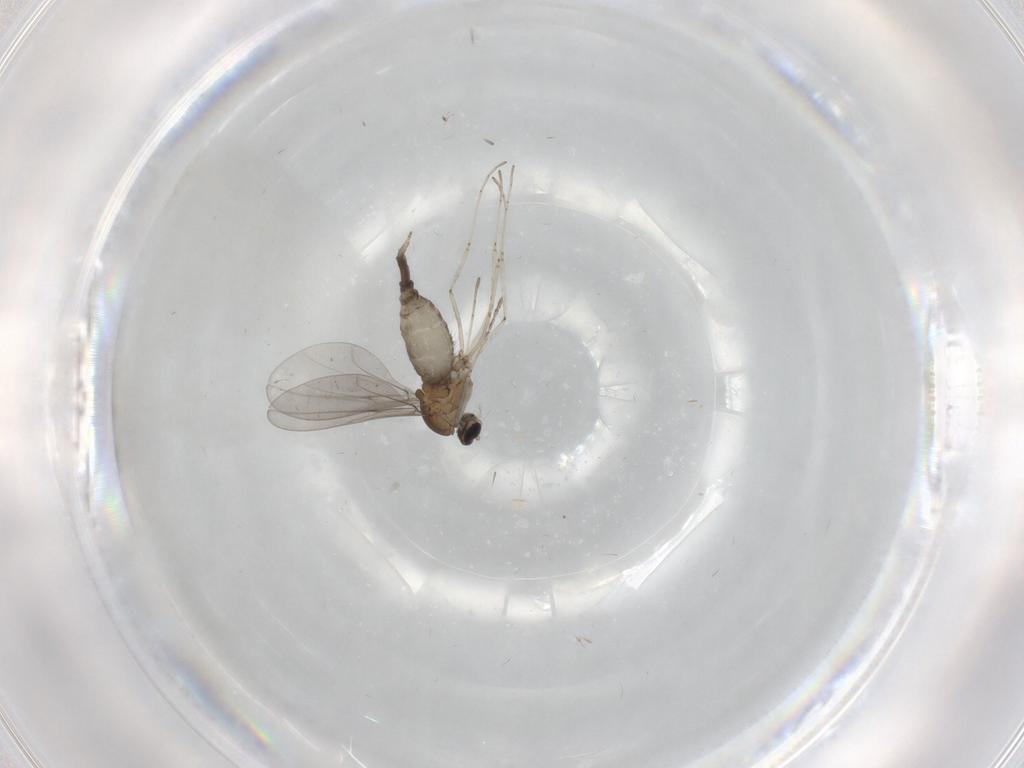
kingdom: Animalia
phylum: Arthropoda
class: Insecta
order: Diptera
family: Cecidomyiidae
